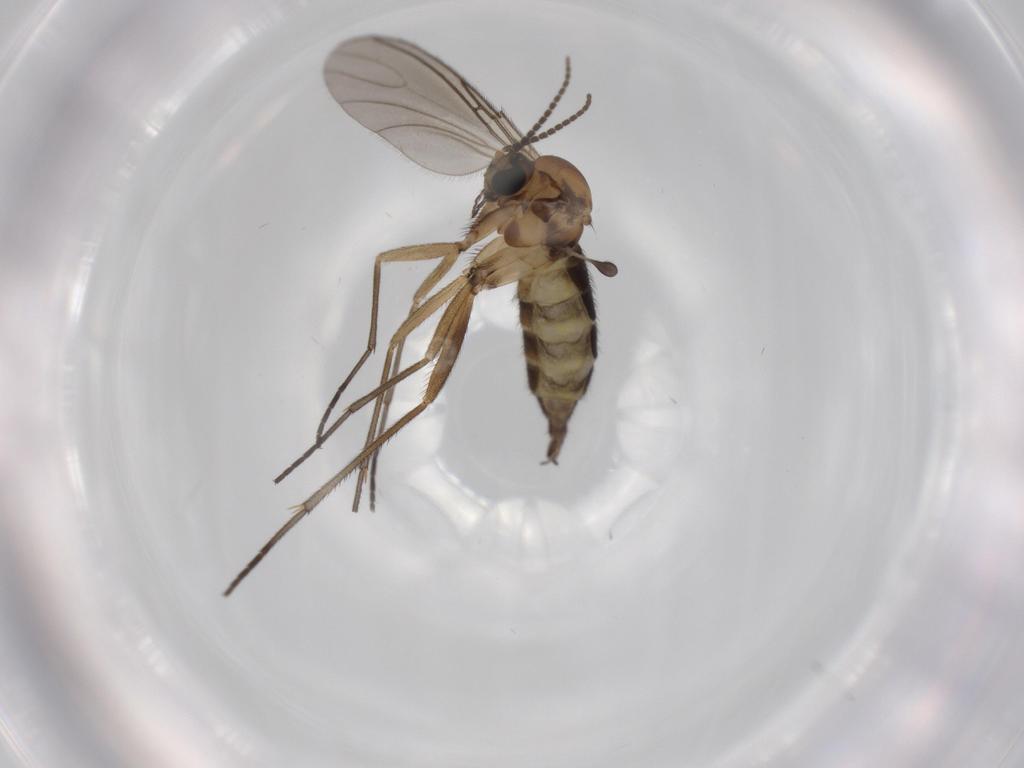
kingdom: Animalia
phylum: Arthropoda
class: Insecta
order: Diptera
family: Sciaridae
